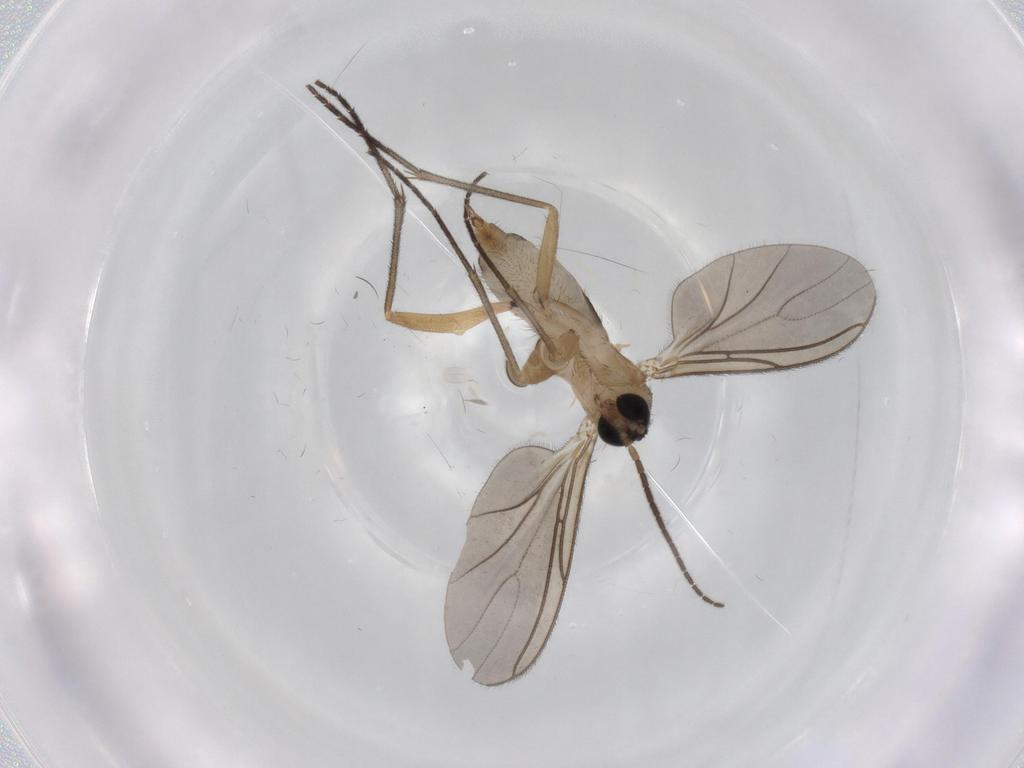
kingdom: Animalia
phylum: Arthropoda
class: Insecta
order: Diptera
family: Sciaridae
